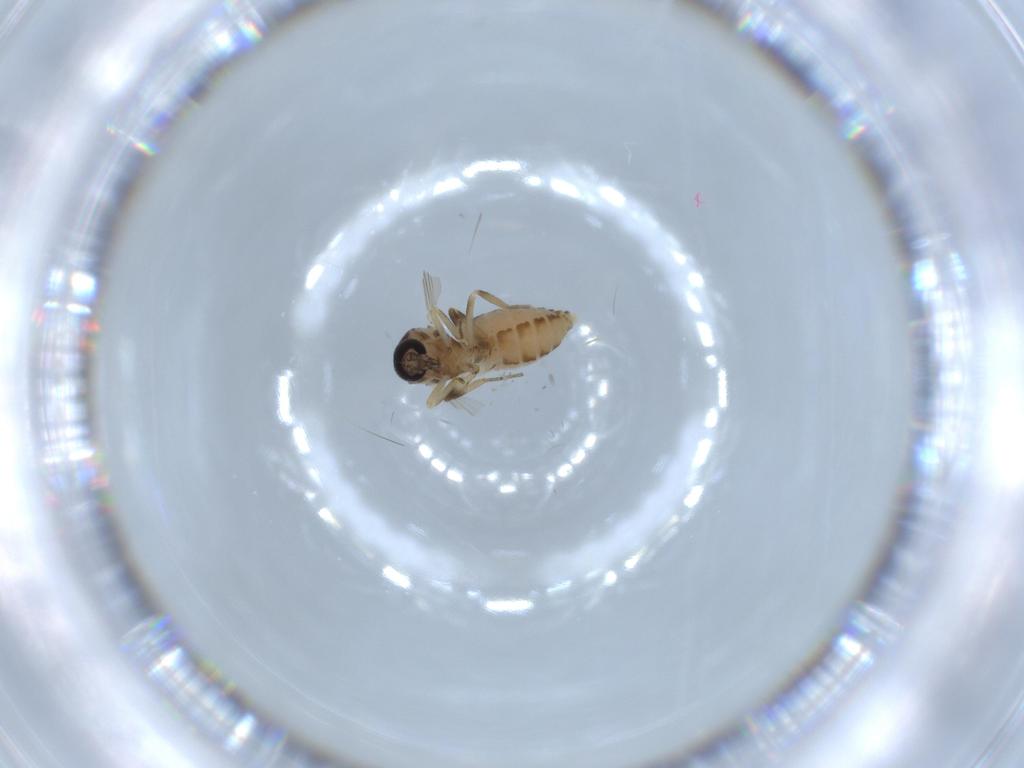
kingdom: Animalia
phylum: Arthropoda
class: Insecta
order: Diptera
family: Ceratopogonidae
